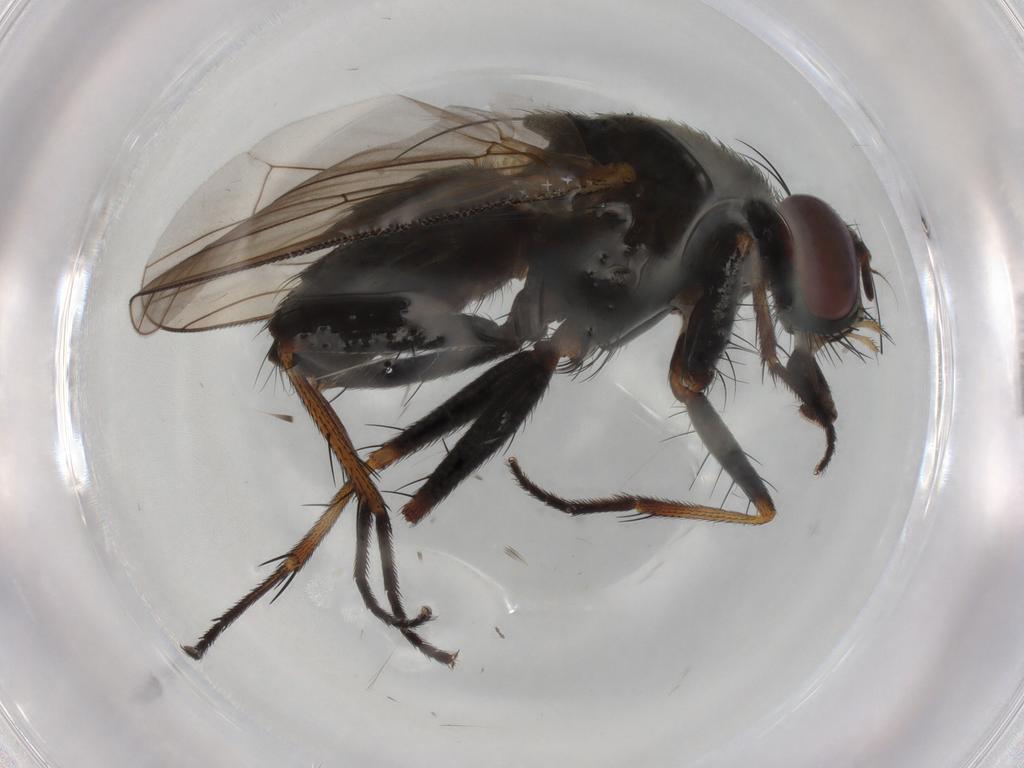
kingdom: Animalia
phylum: Arthropoda
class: Insecta
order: Diptera
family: Muscidae
